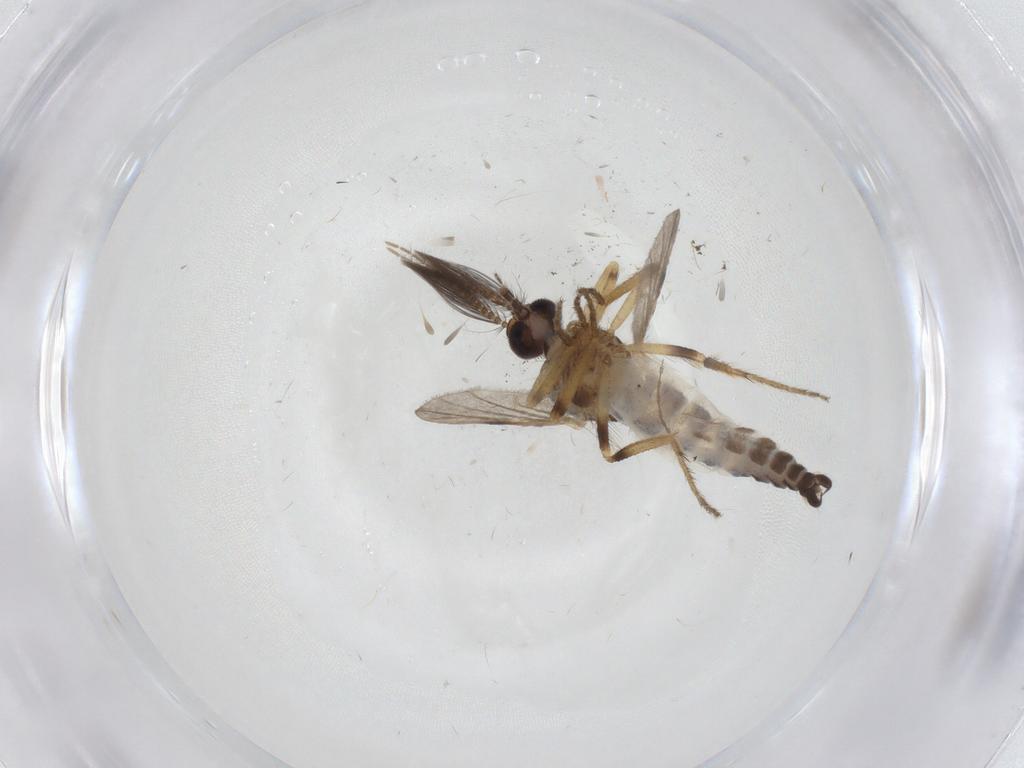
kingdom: Animalia
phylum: Arthropoda
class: Insecta
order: Diptera
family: Ceratopogonidae
